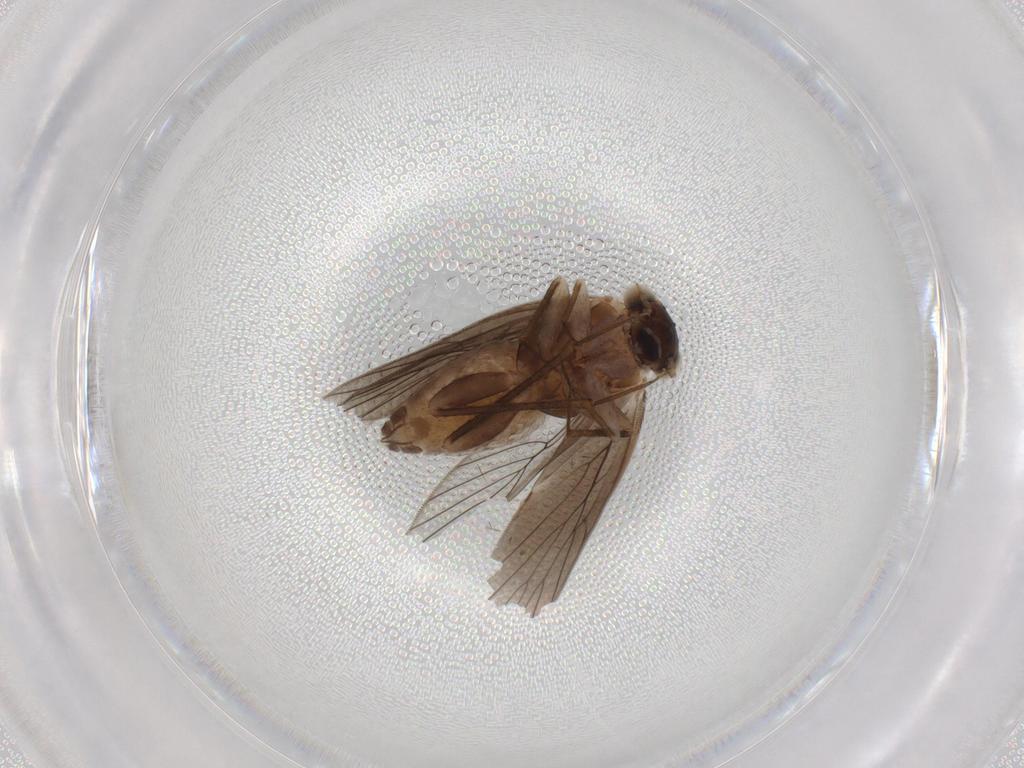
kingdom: Animalia
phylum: Arthropoda
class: Insecta
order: Psocodea
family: Lepidopsocidae
